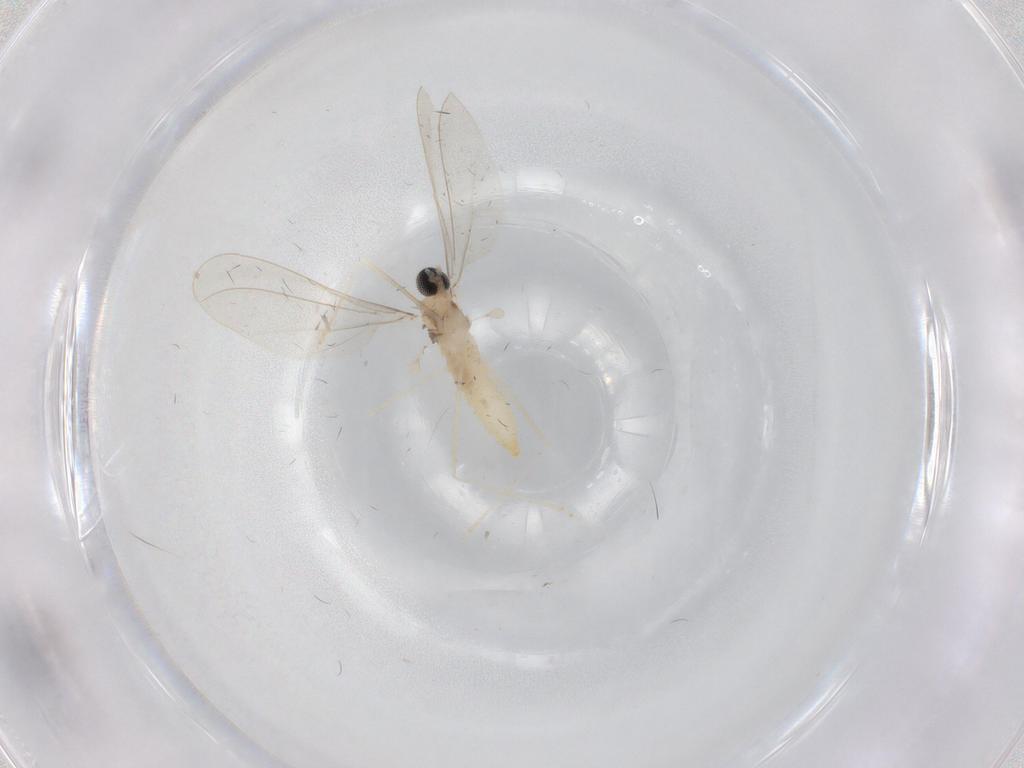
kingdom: Animalia
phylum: Arthropoda
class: Insecta
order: Diptera
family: Cecidomyiidae
